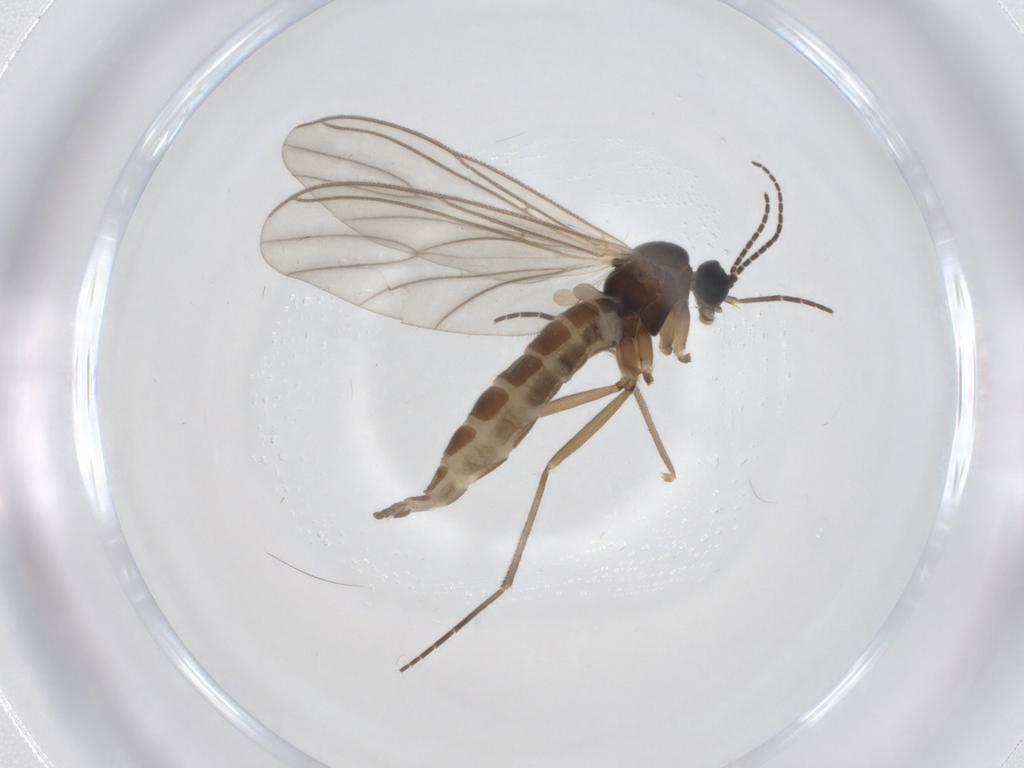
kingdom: Animalia
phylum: Arthropoda
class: Insecta
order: Diptera
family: Sciaridae
